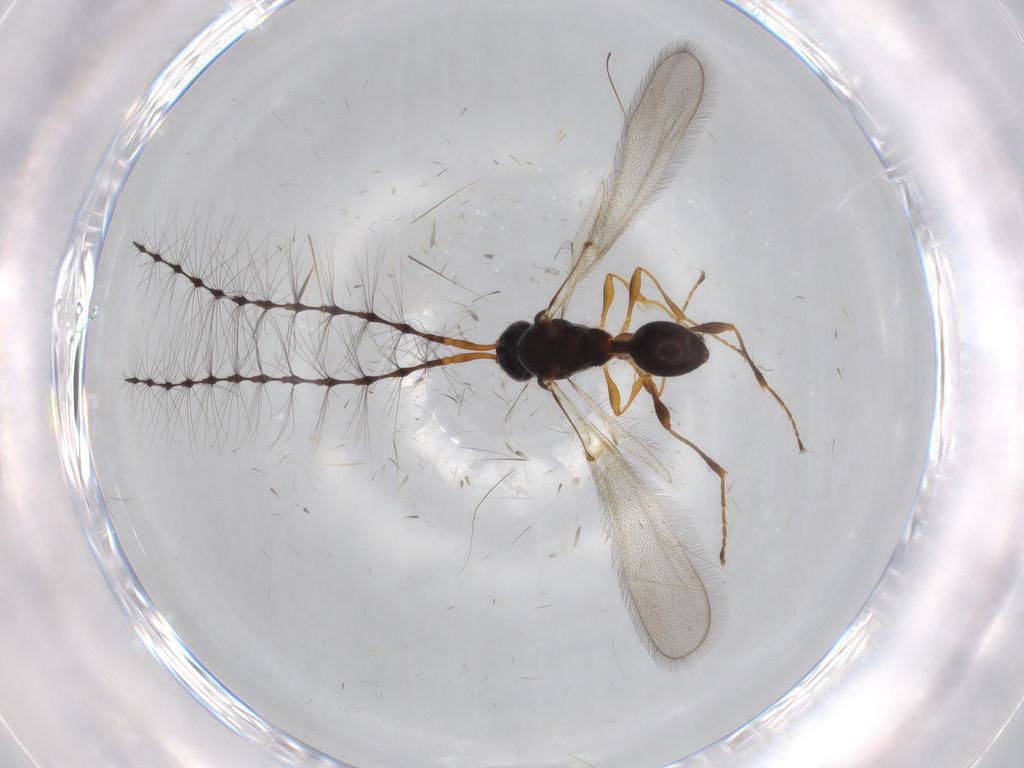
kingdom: Animalia
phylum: Arthropoda
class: Insecta
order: Hymenoptera
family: Diapriidae
